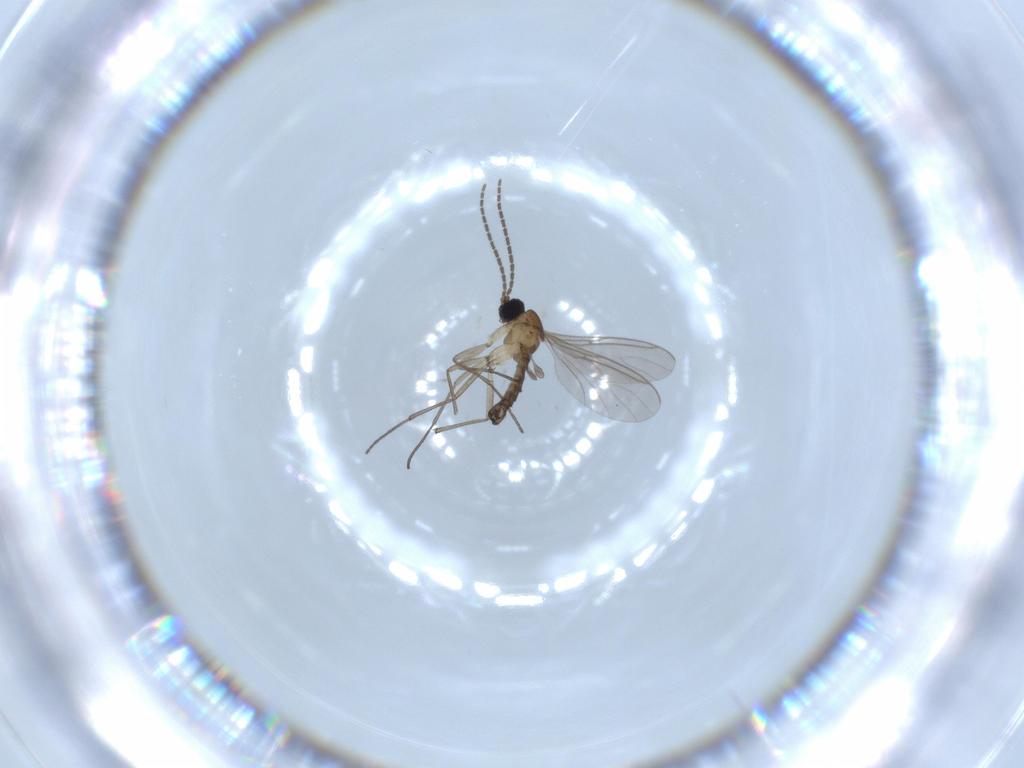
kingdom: Animalia
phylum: Arthropoda
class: Insecta
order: Diptera
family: Sciaridae
